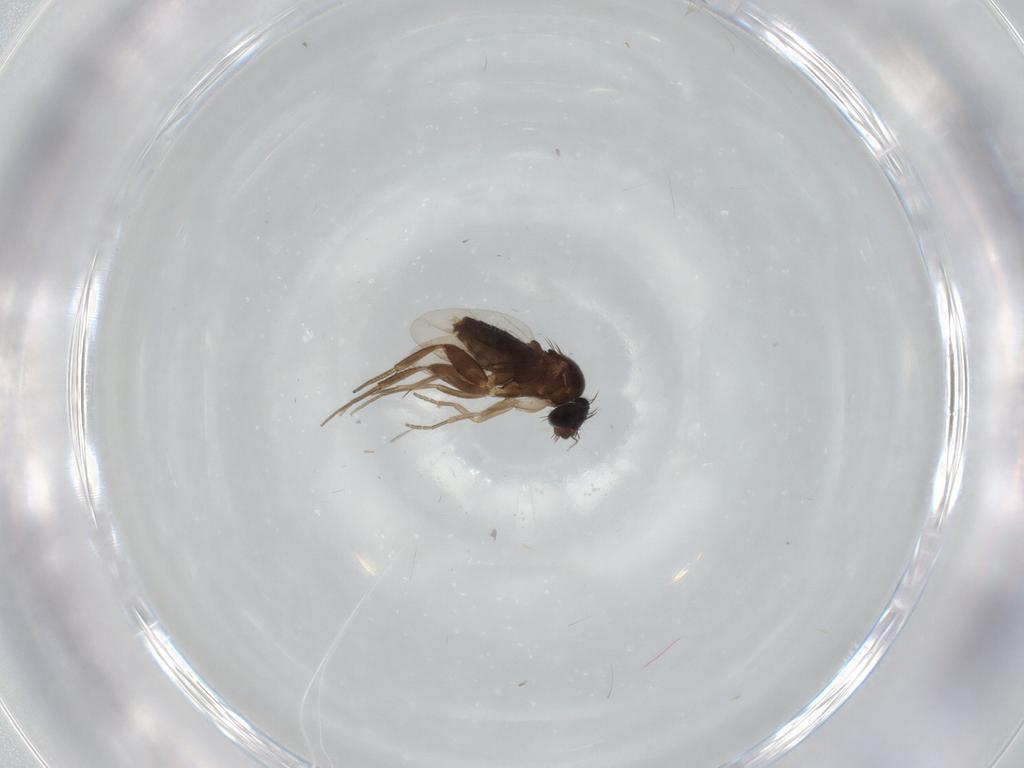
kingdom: Animalia
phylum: Arthropoda
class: Insecta
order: Diptera
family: Phoridae
